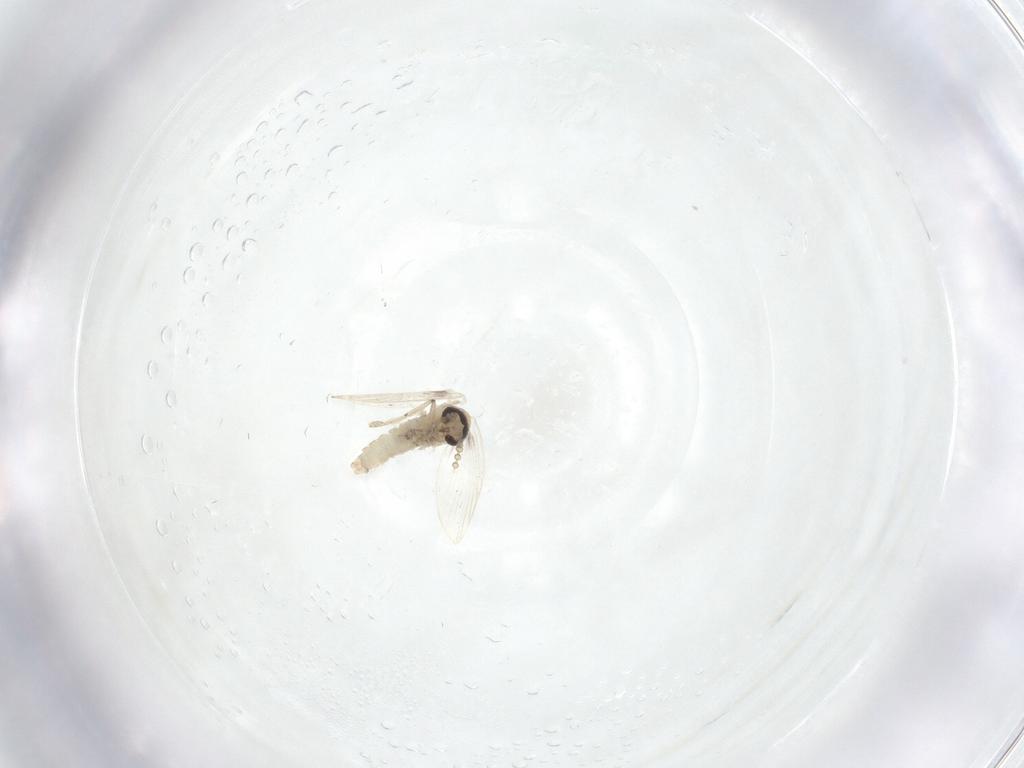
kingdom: Animalia
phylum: Arthropoda
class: Insecta
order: Diptera
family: Psychodidae
